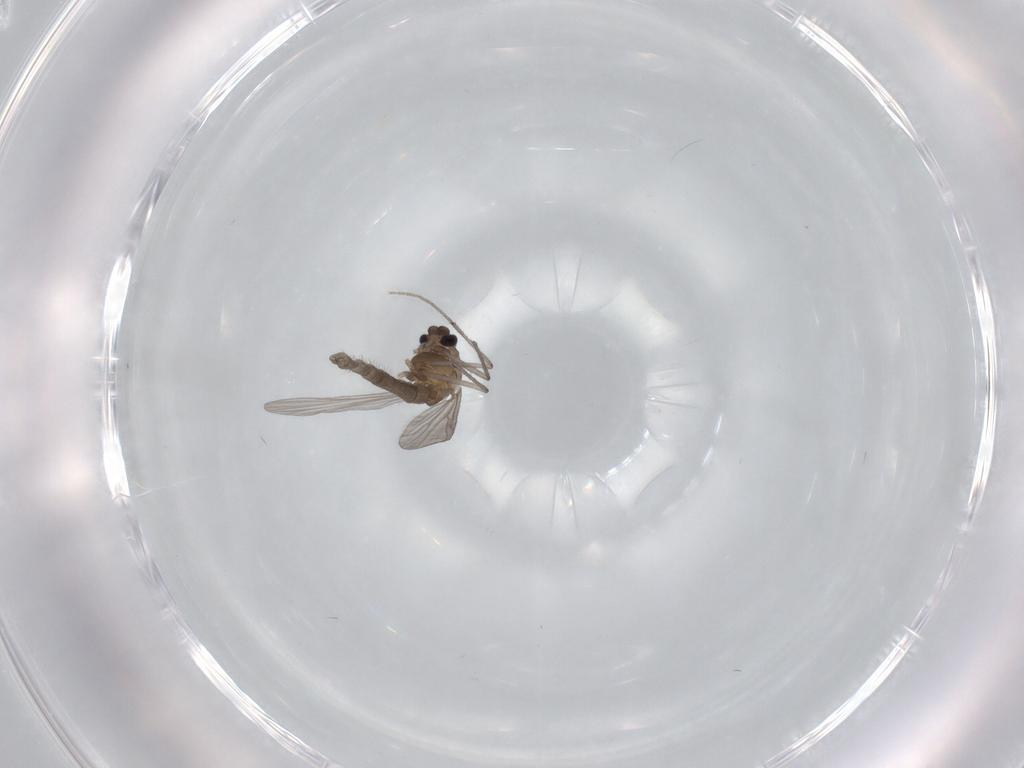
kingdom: Animalia
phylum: Arthropoda
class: Insecta
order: Diptera
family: Chironomidae
